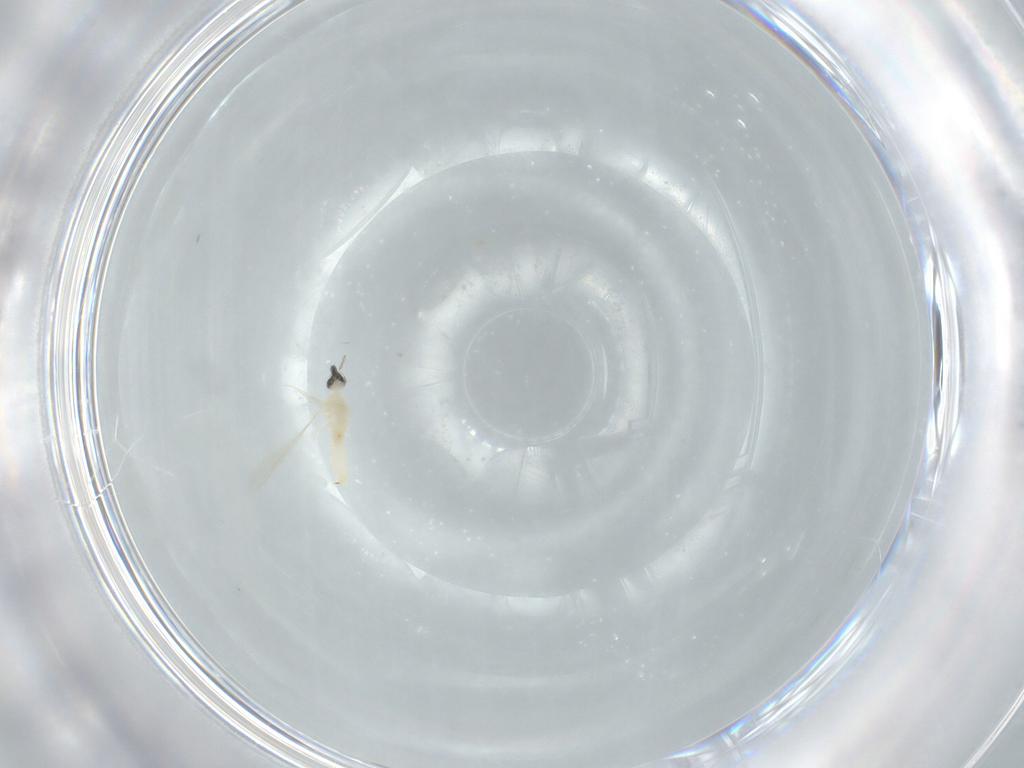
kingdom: Animalia
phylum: Arthropoda
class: Insecta
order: Diptera
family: Cecidomyiidae
